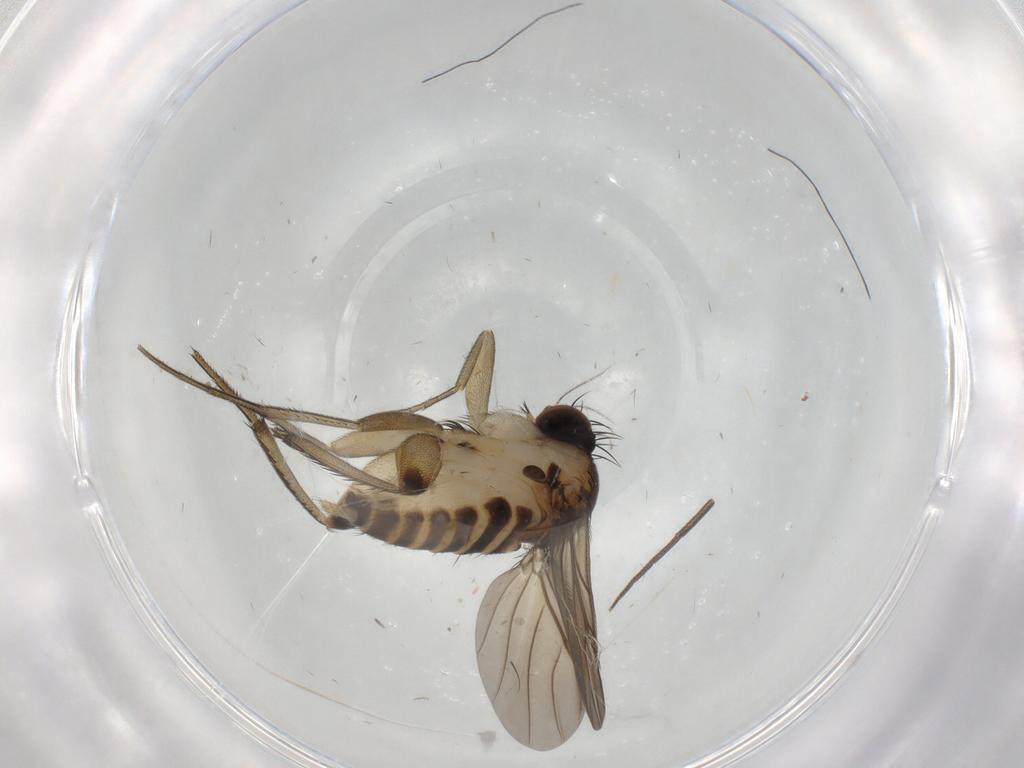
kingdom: Animalia
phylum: Arthropoda
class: Insecta
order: Diptera
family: Phoridae
